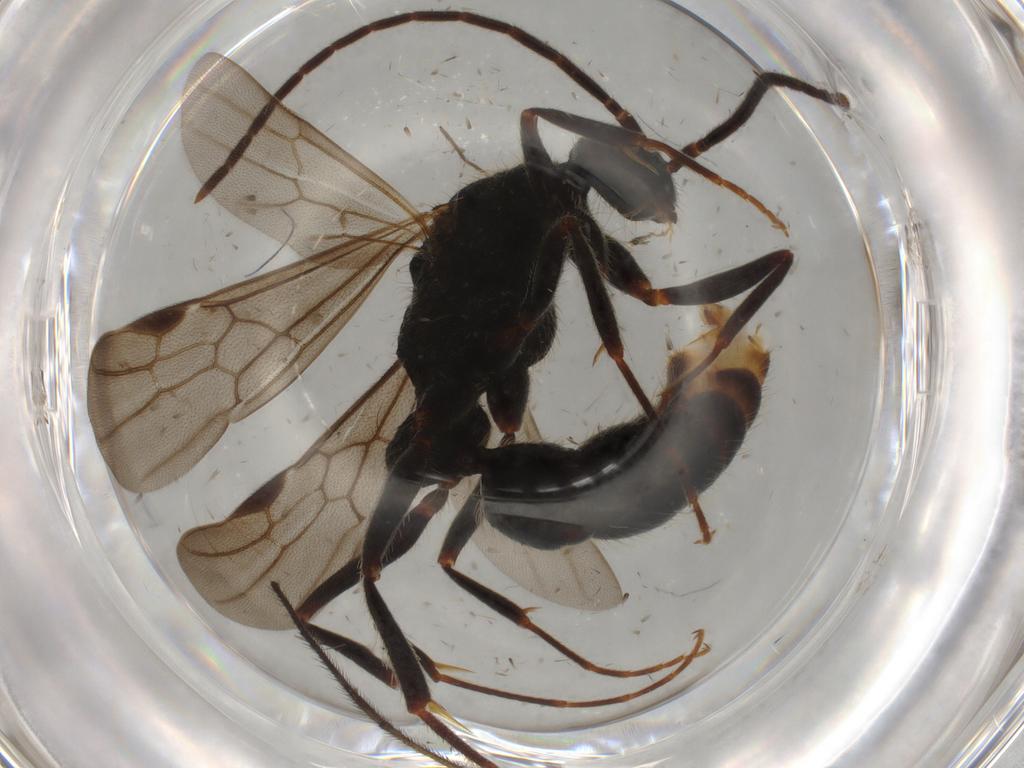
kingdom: Animalia
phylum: Arthropoda
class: Insecta
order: Hymenoptera
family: Formicidae
